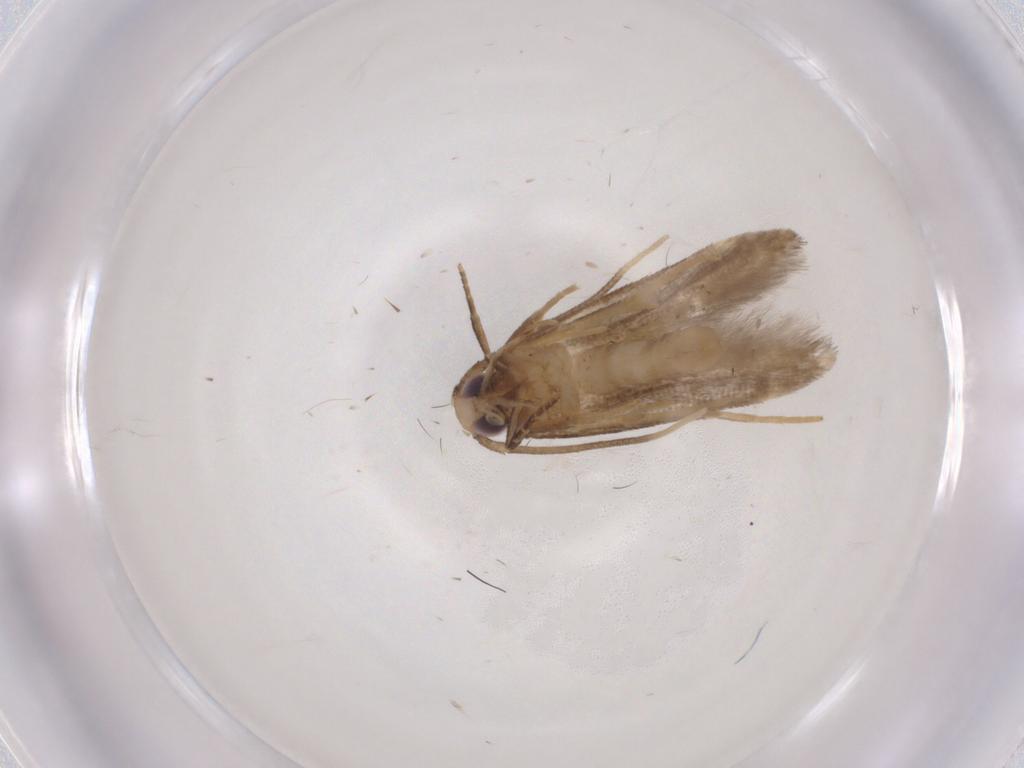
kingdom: Animalia
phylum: Arthropoda
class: Insecta
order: Lepidoptera
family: Cosmopterigidae
